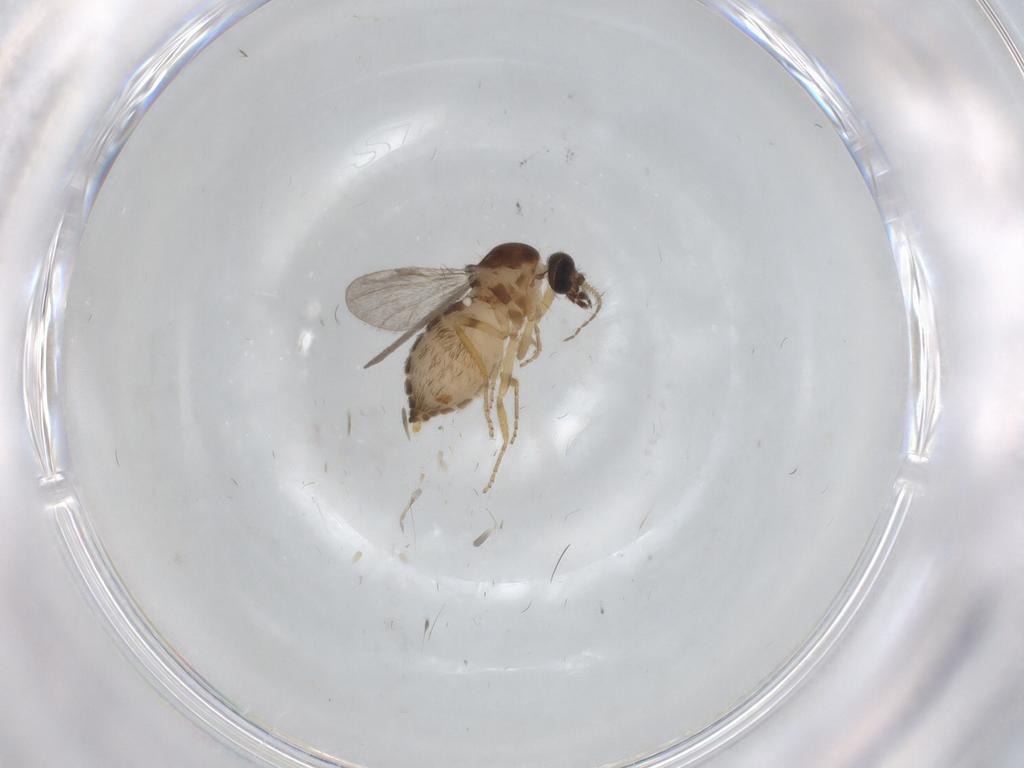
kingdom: Animalia
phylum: Arthropoda
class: Insecta
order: Diptera
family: Ceratopogonidae
